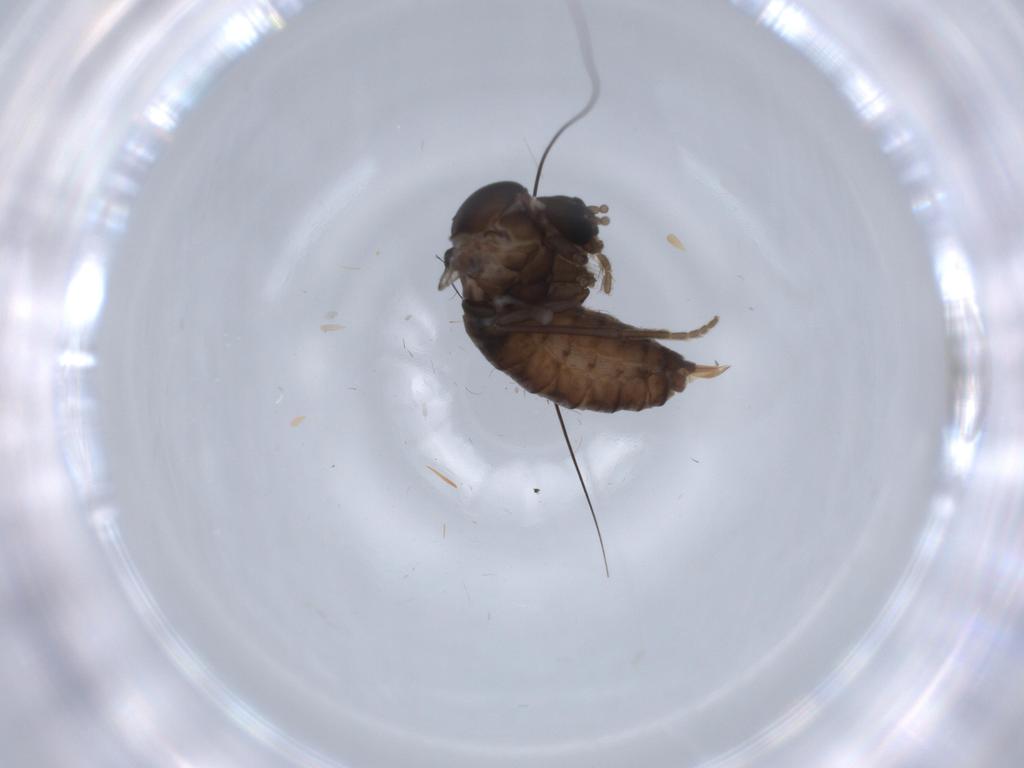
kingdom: Animalia
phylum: Arthropoda
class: Insecta
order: Diptera
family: Psychodidae
